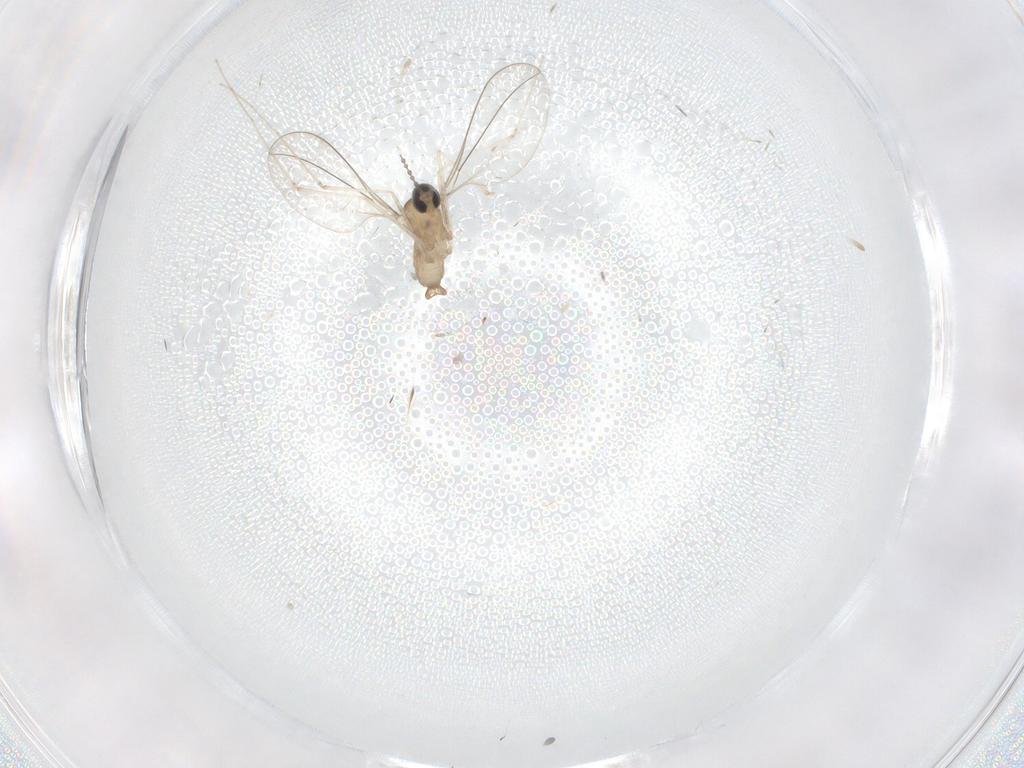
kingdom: Animalia
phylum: Arthropoda
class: Insecta
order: Diptera
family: Cecidomyiidae
